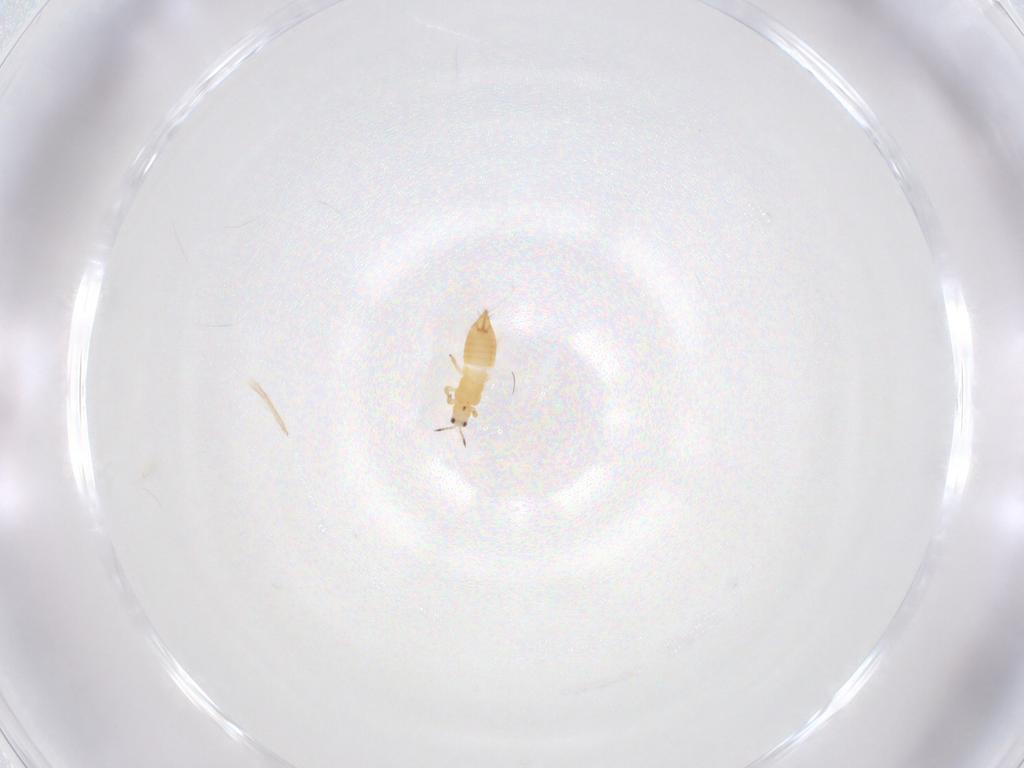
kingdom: Animalia
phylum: Arthropoda
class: Insecta
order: Thysanoptera
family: Thripidae
